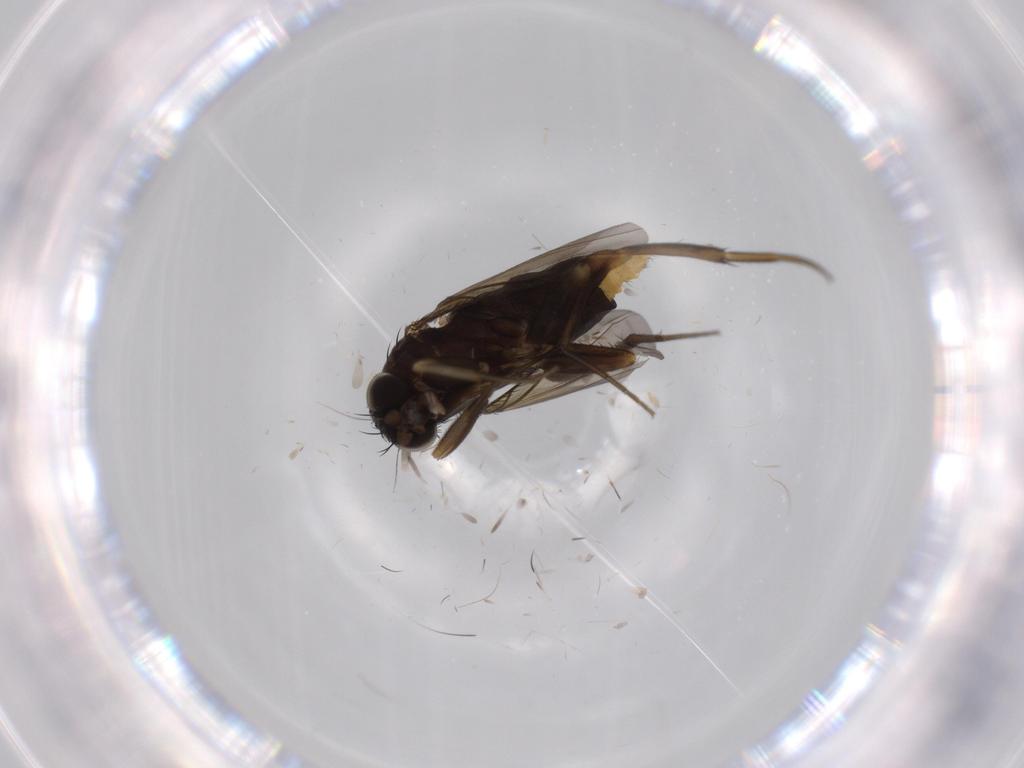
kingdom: Animalia
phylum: Arthropoda
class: Insecta
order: Diptera
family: Phoridae
